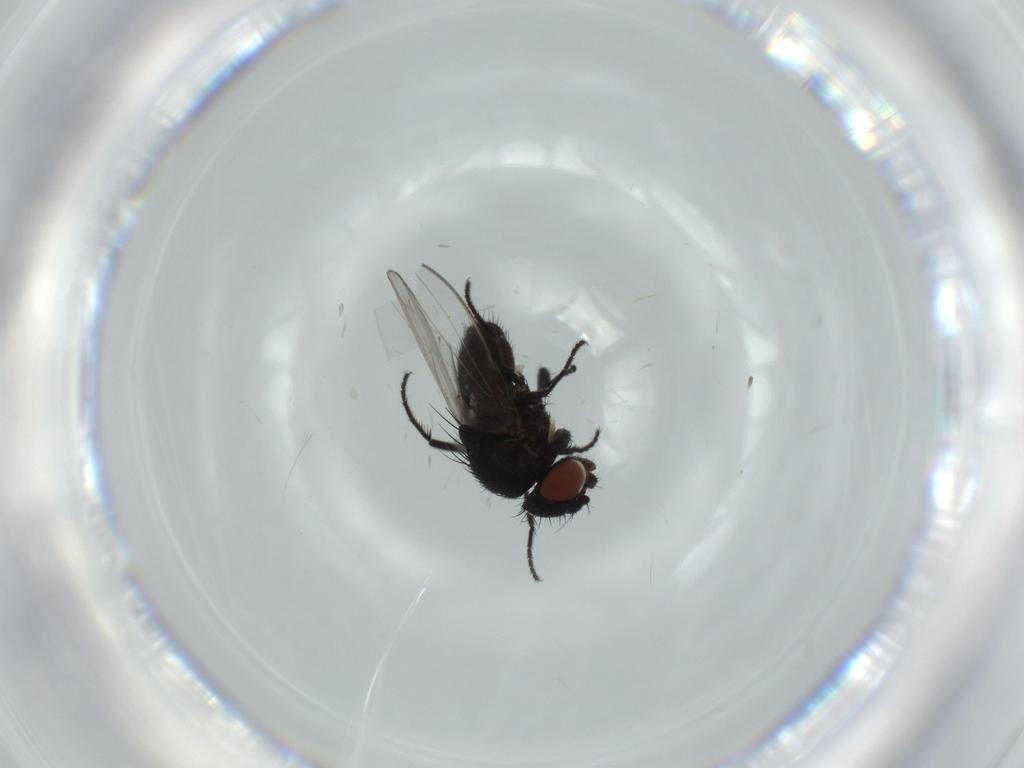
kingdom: Animalia
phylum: Arthropoda
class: Insecta
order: Diptera
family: Milichiidae
